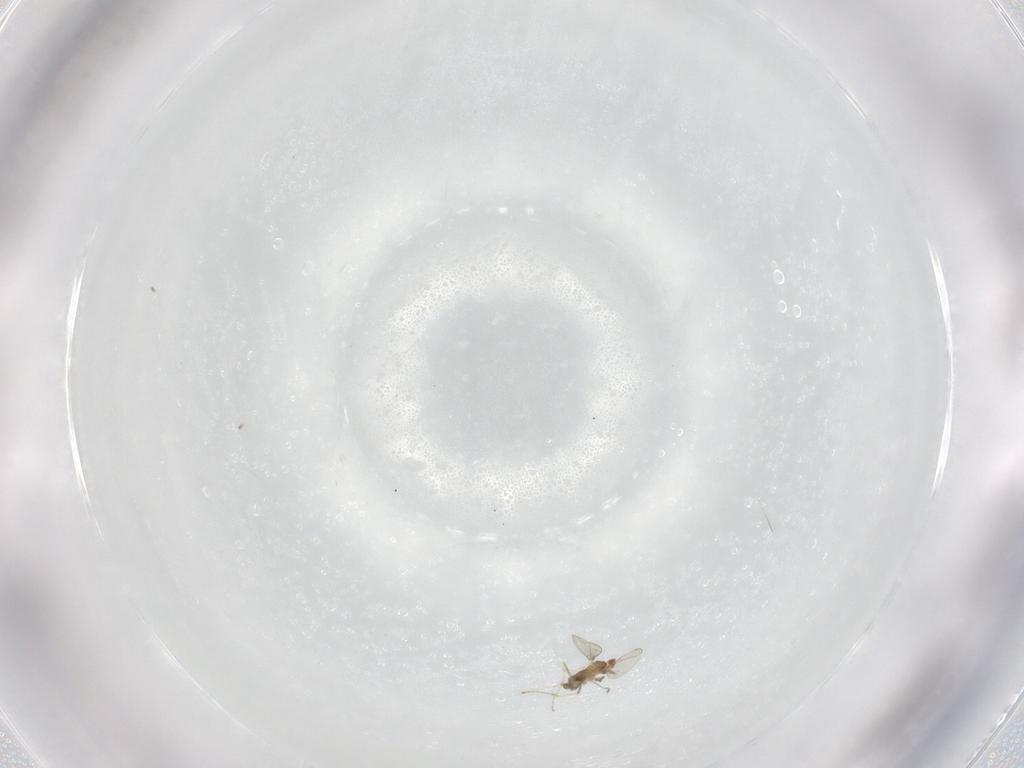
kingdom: Animalia
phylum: Arthropoda
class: Insecta
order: Diptera
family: Cecidomyiidae
